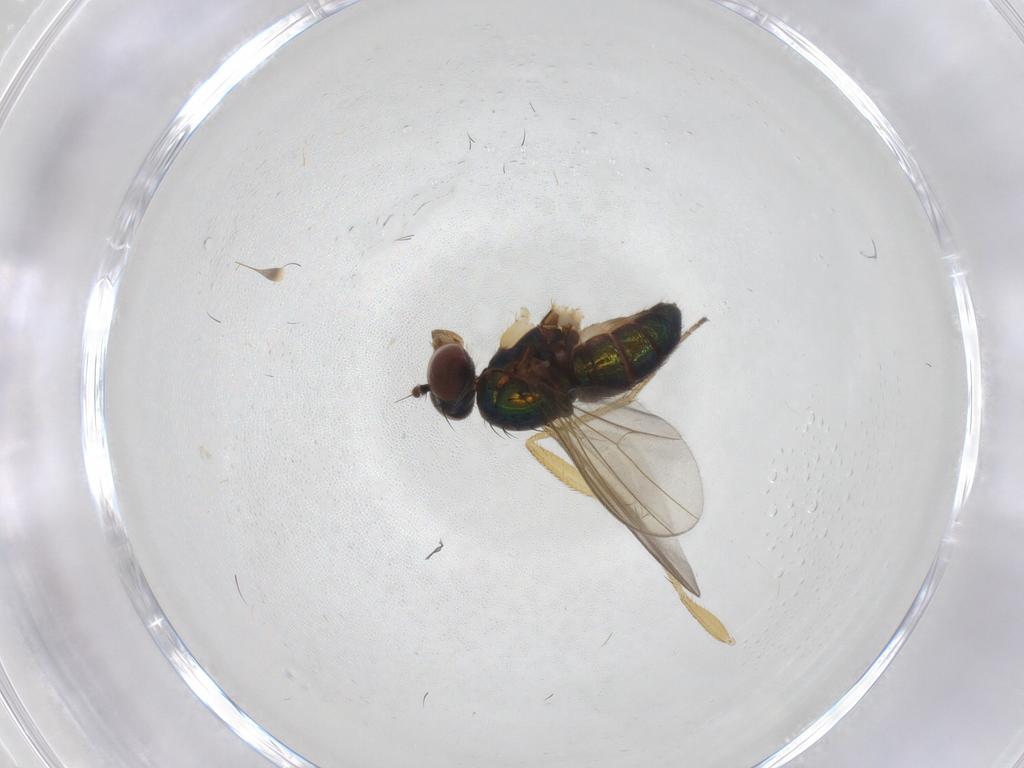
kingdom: Animalia
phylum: Arthropoda
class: Insecta
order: Diptera
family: Dolichopodidae
